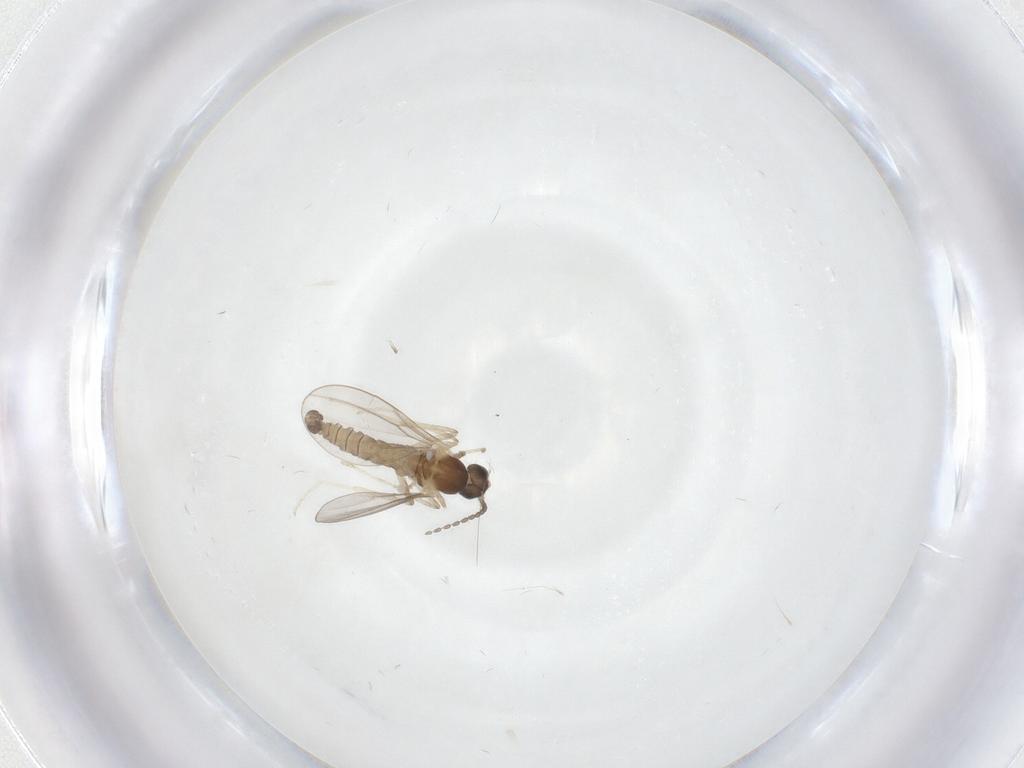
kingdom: Animalia
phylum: Arthropoda
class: Insecta
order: Diptera
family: Cecidomyiidae
